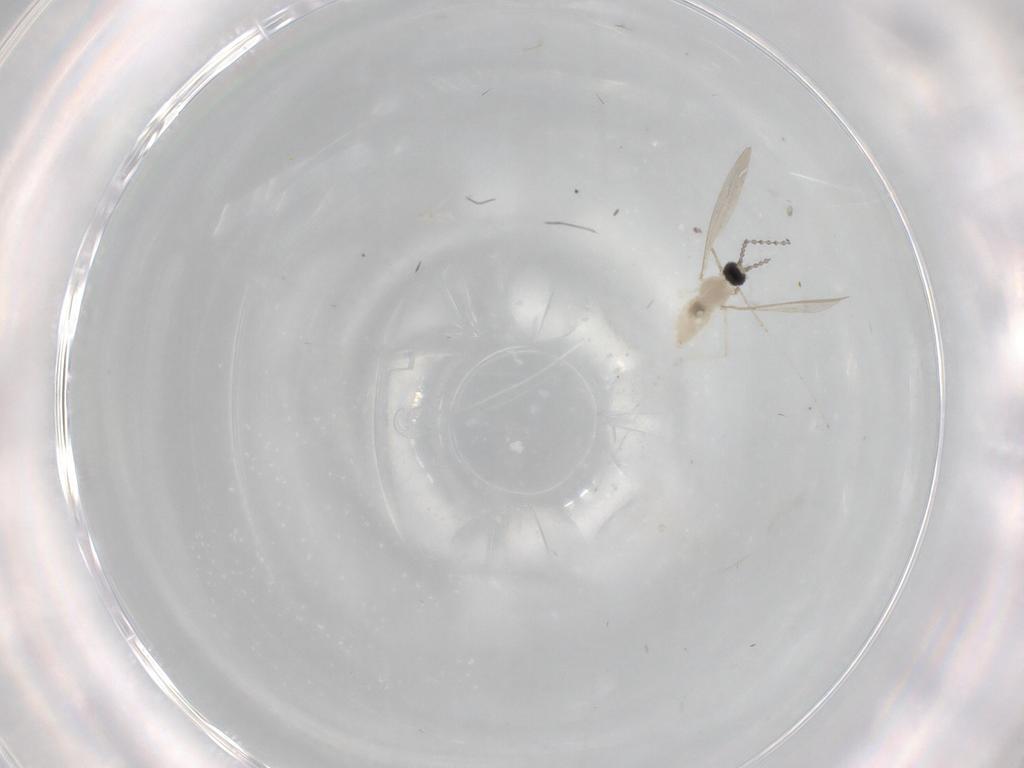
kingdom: Animalia
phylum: Arthropoda
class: Insecta
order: Diptera
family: Cecidomyiidae
